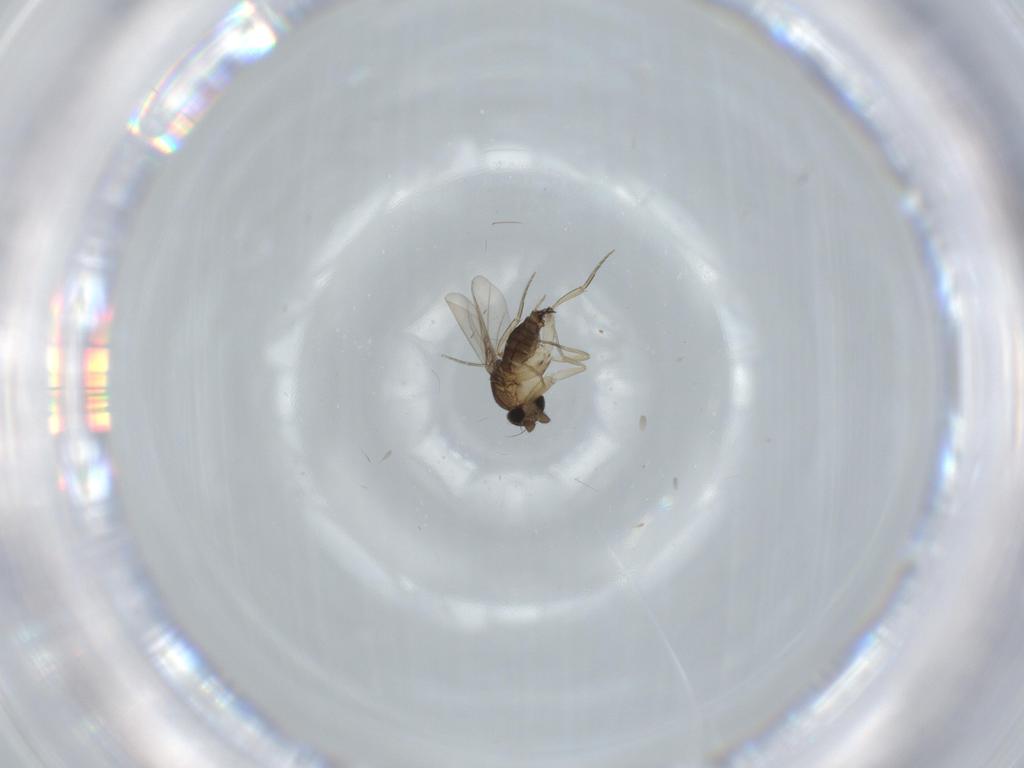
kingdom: Animalia
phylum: Arthropoda
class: Insecta
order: Diptera
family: Phoridae
